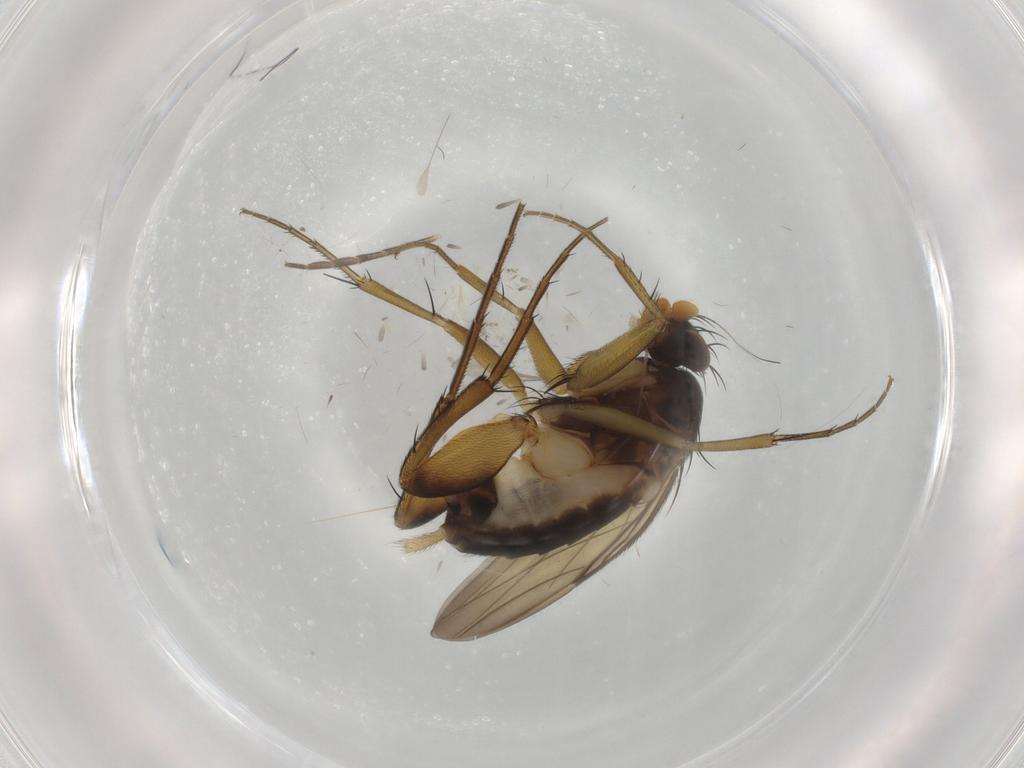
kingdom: Animalia
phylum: Arthropoda
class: Insecta
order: Diptera
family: Phoridae
